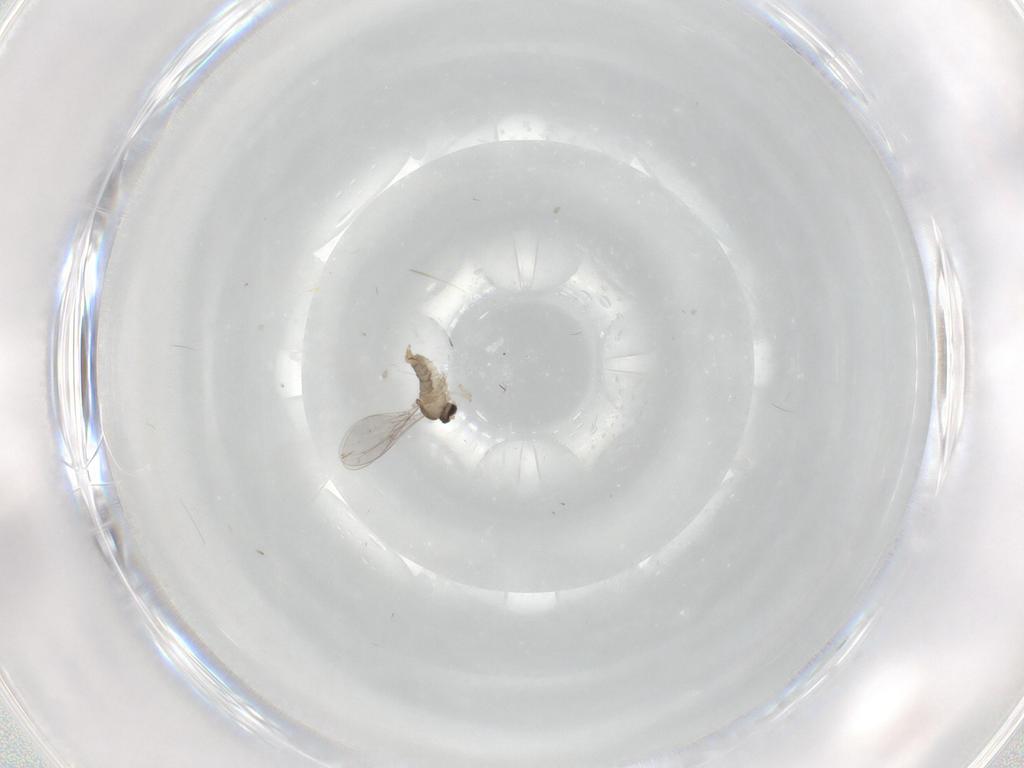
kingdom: Animalia
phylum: Arthropoda
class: Insecta
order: Diptera
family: Cecidomyiidae
